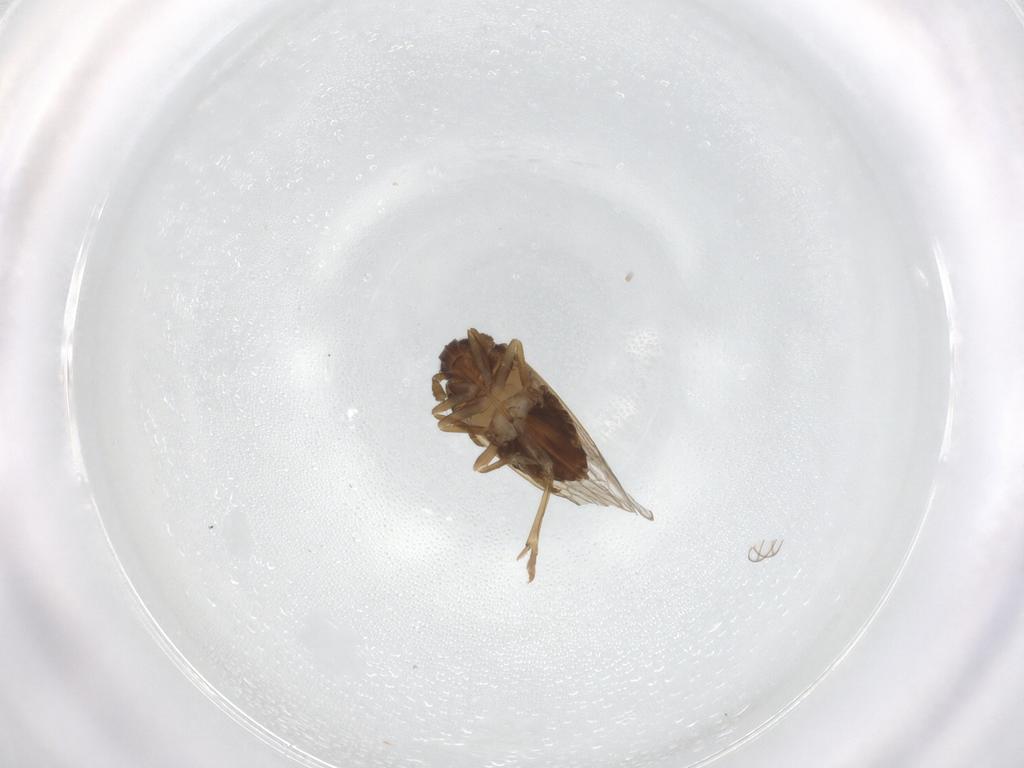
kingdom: Animalia
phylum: Arthropoda
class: Insecta
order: Hemiptera
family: Delphacidae
